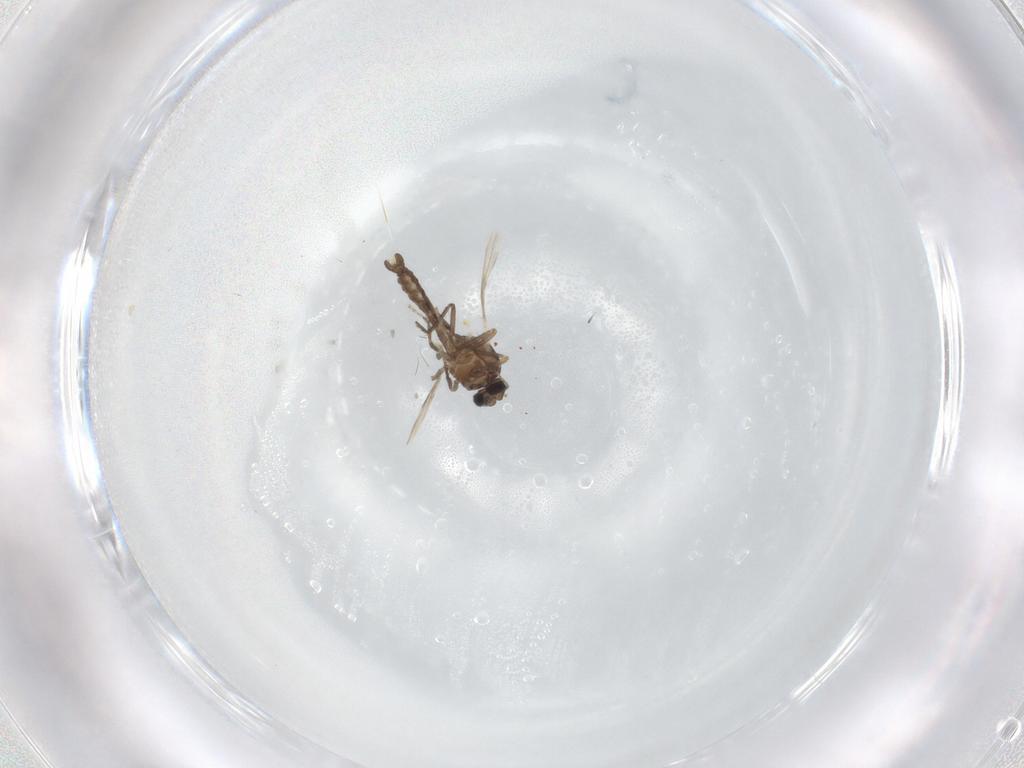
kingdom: Animalia
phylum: Arthropoda
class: Insecta
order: Diptera
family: Ceratopogonidae
